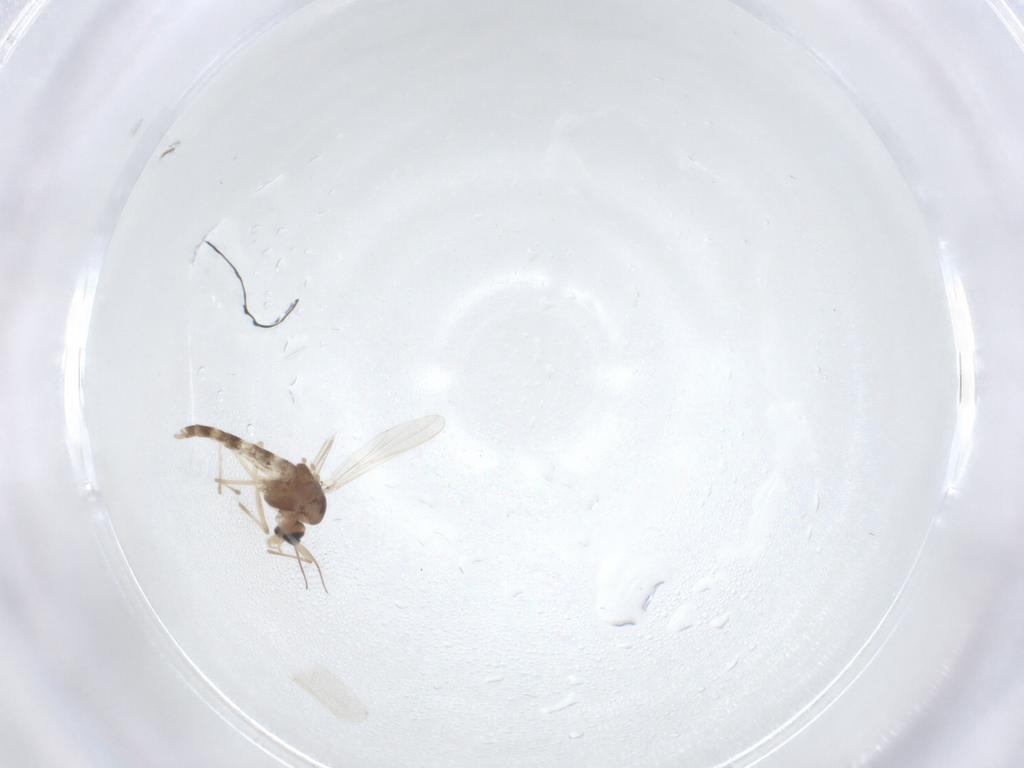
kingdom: Animalia
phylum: Arthropoda
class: Insecta
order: Diptera
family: Chironomidae
